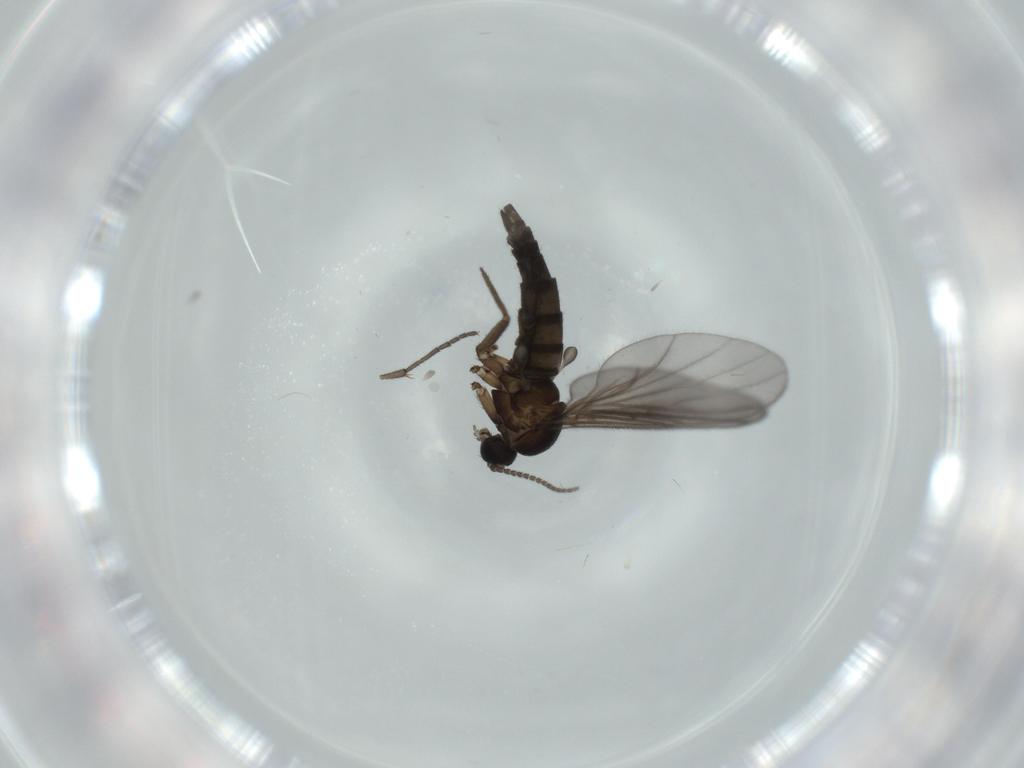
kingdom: Animalia
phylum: Arthropoda
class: Insecta
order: Diptera
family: Sciaridae
